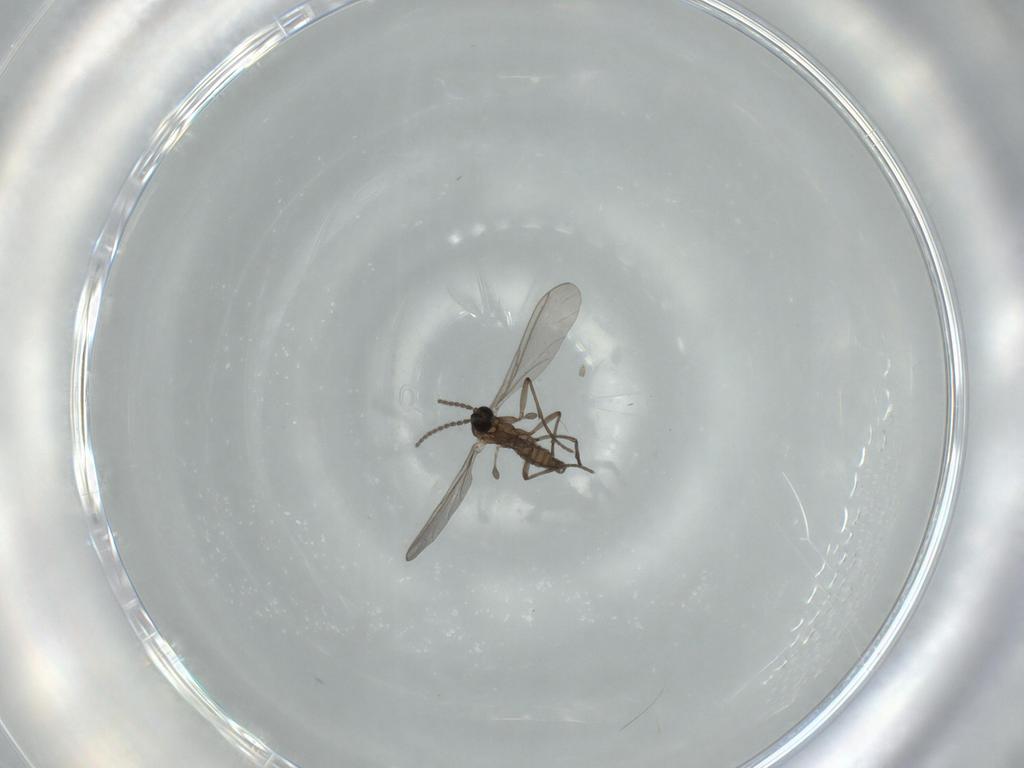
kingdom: Animalia
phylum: Arthropoda
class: Insecta
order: Diptera
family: Sciaridae
